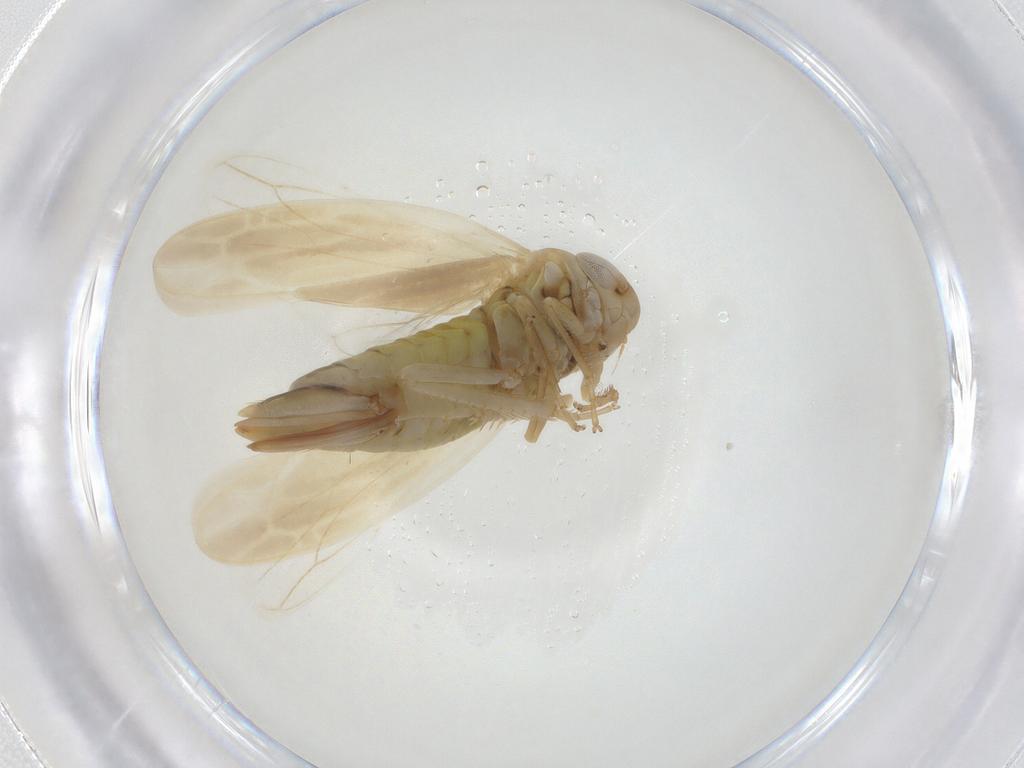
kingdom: Animalia
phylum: Arthropoda
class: Insecta
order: Hemiptera
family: Cicadellidae
